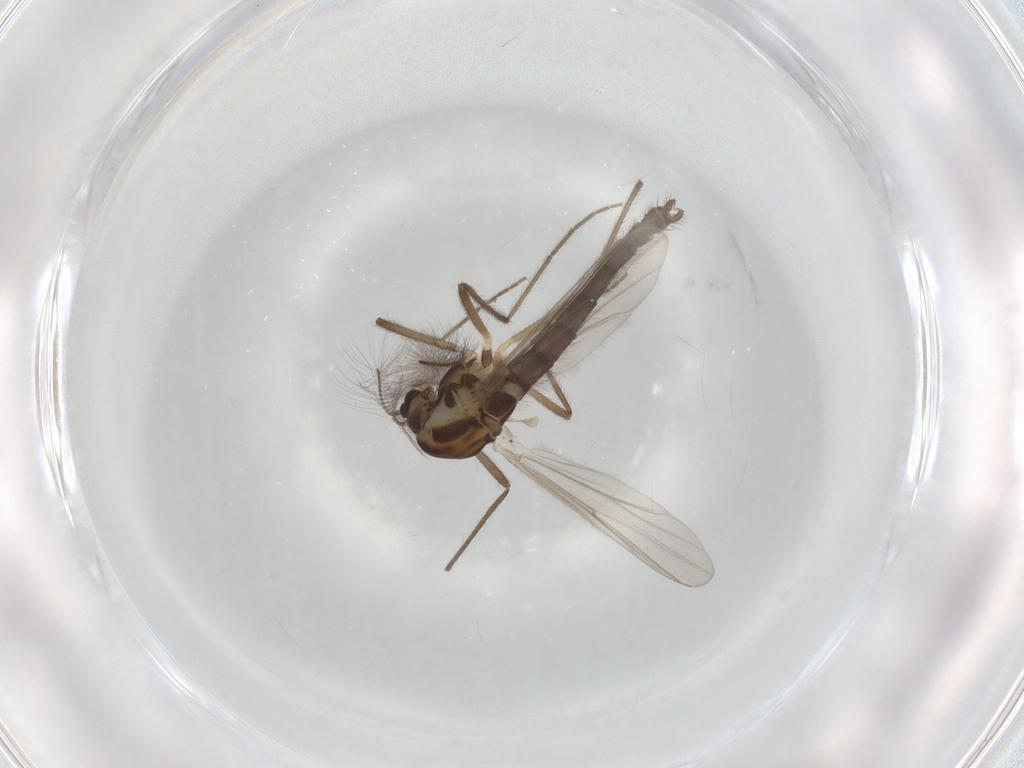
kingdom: Animalia
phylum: Arthropoda
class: Insecta
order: Diptera
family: Chironomidae
